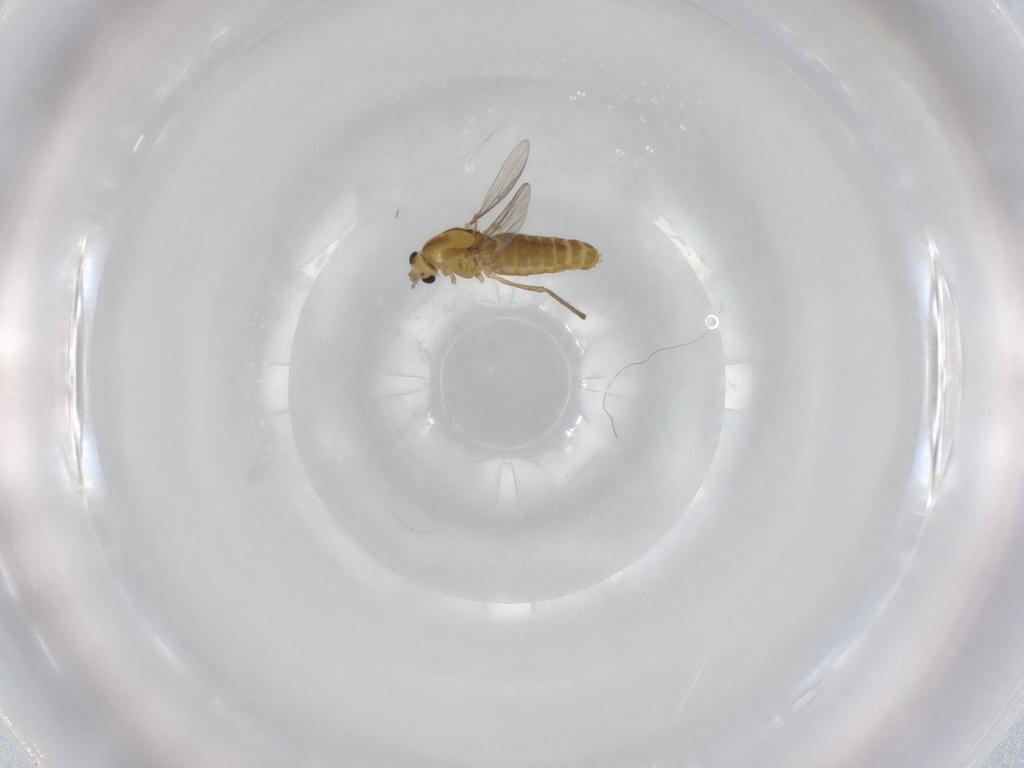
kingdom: Animalia
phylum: Arthropoda
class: Insecta
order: Diptera
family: Chironomidae
